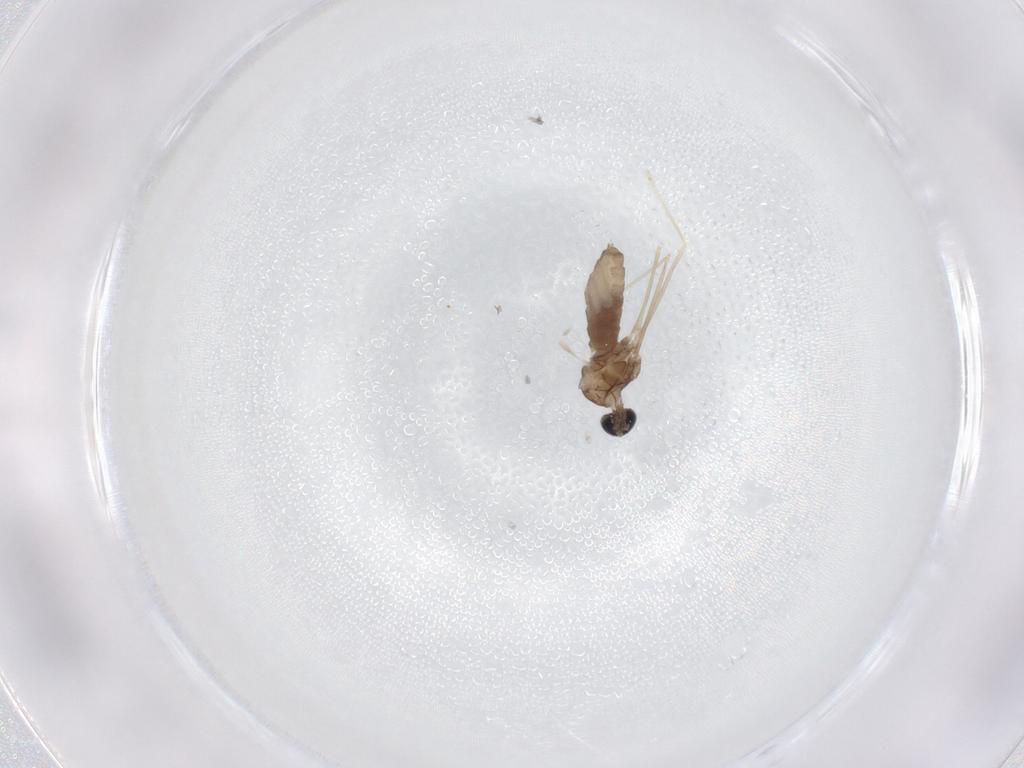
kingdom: Animalia
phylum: Arthropoda
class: Insecta
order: Diptera
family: Cecidomyiidae
